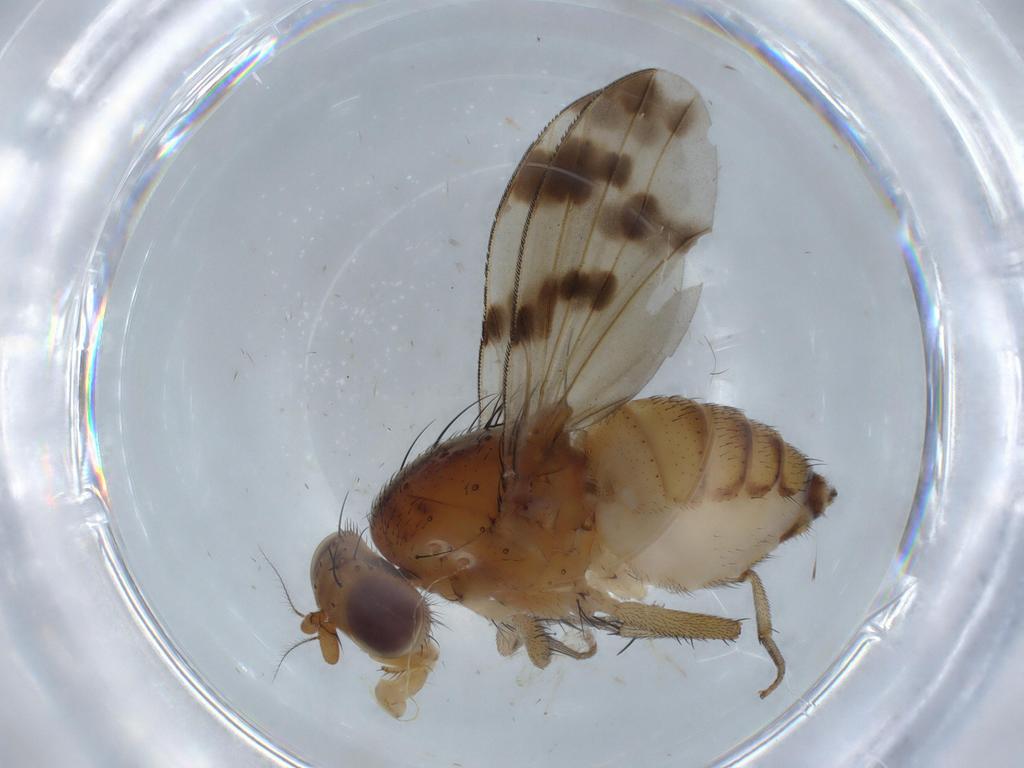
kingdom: Animalia
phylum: Arthropoda
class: Insecta
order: Diptera
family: Lauxaniidae
